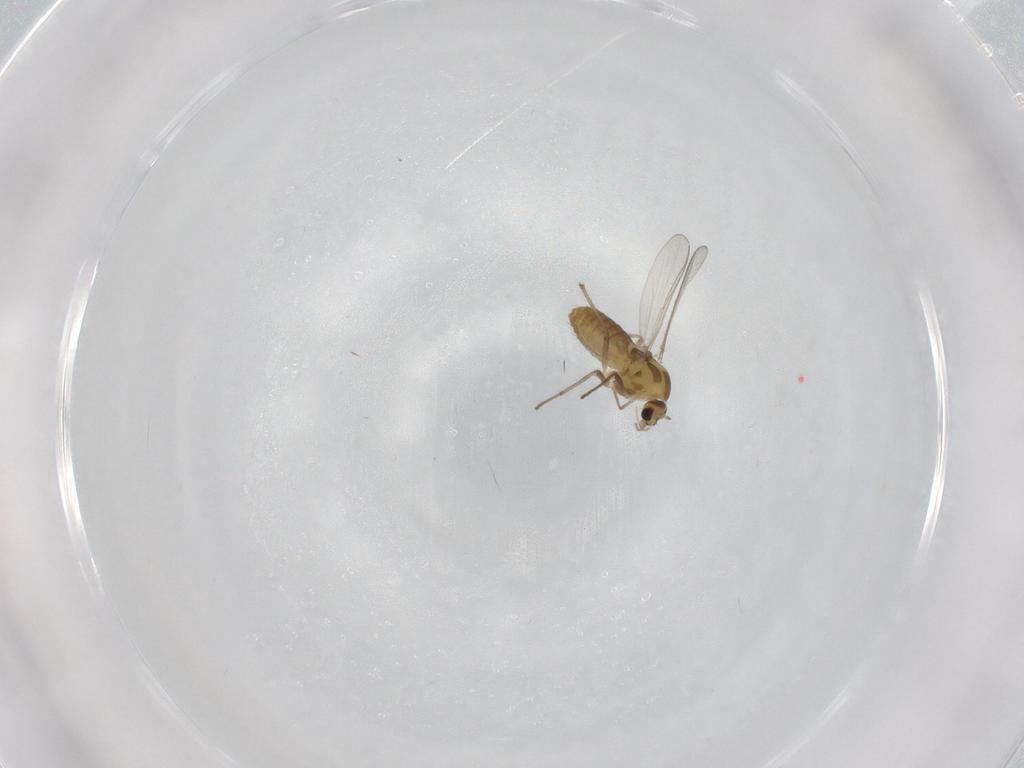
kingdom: Animalia
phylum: Arthropoda
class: Insecta
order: Diptera
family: Chironomidae
